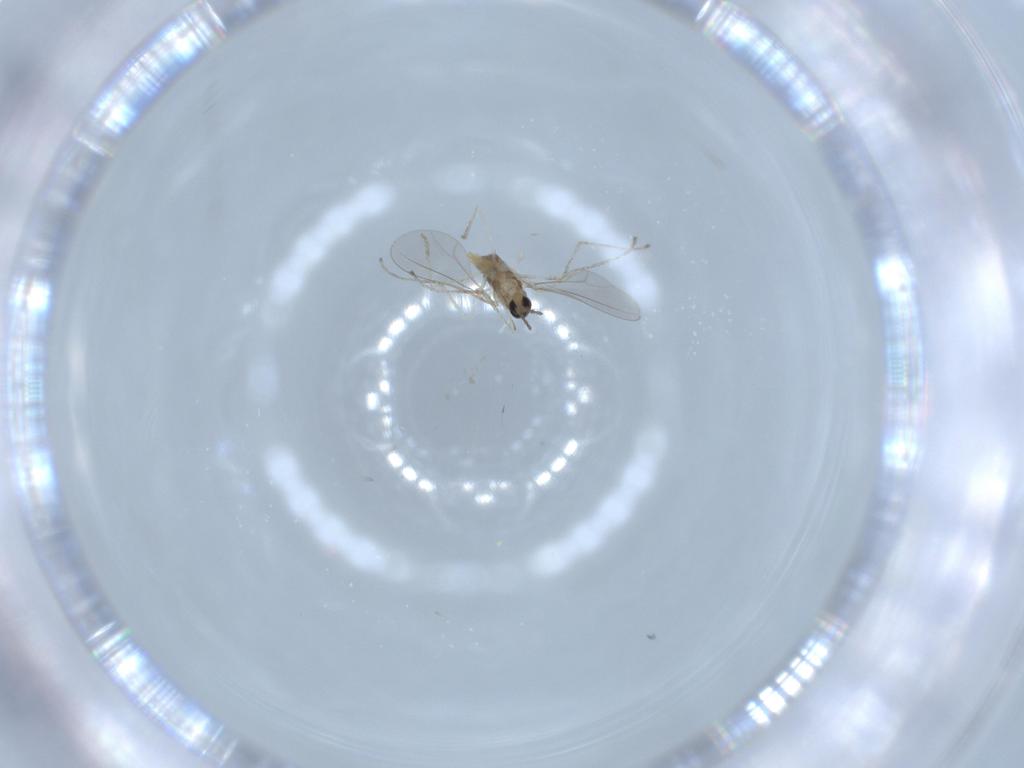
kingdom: Animalia
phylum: Arthropoda
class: Insecta
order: Diptera
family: Cecidomyiidae
